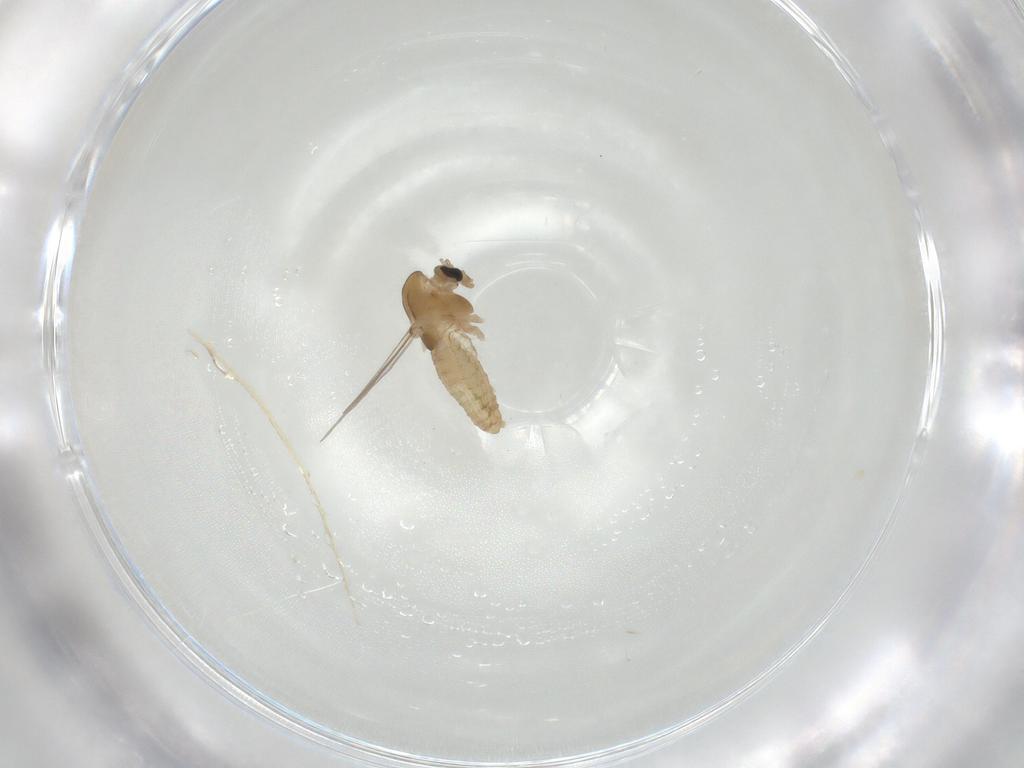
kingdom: Animalia
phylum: Arthropoda
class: Insecta
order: Diptera
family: Chironomidae
